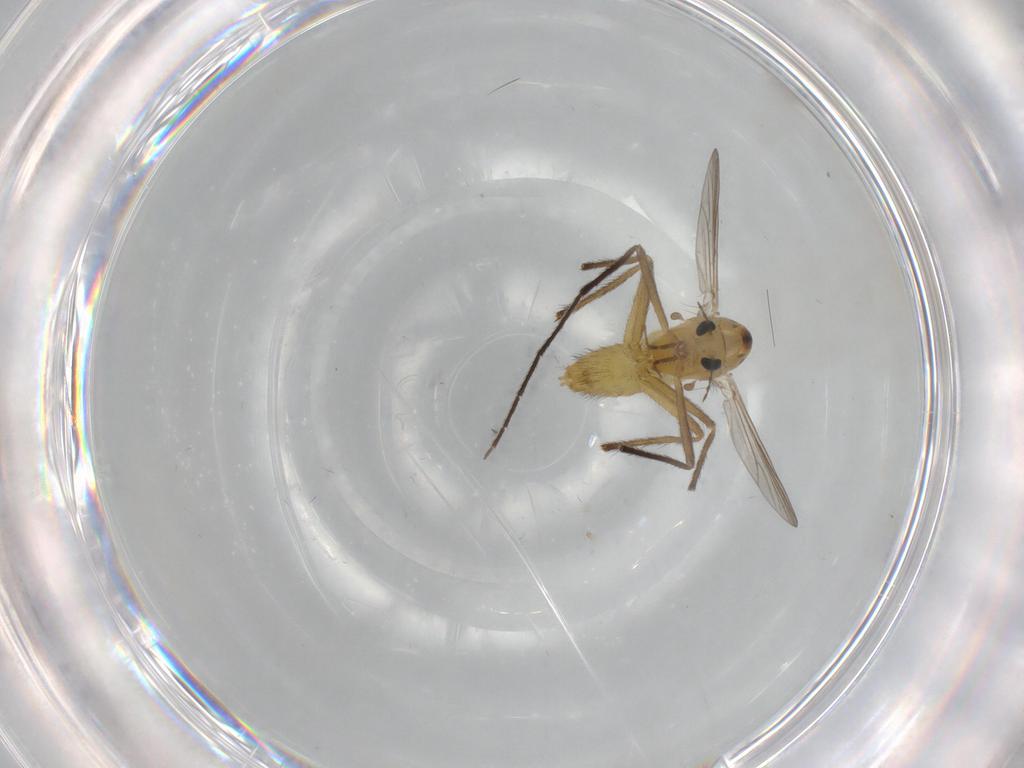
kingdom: Animalia
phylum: Arthropoda
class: Insecta
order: Diptera
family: Chironomidae
